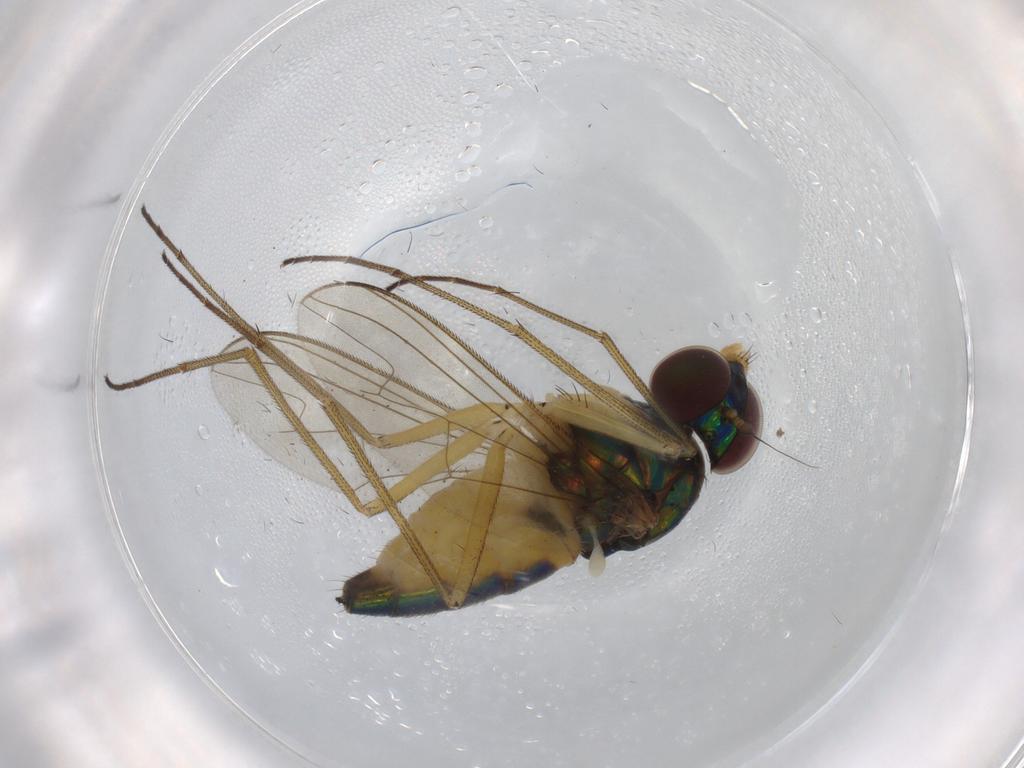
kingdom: Animalia
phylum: Arthropoda
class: Insecta
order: Diptera
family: Dolichopodidae
